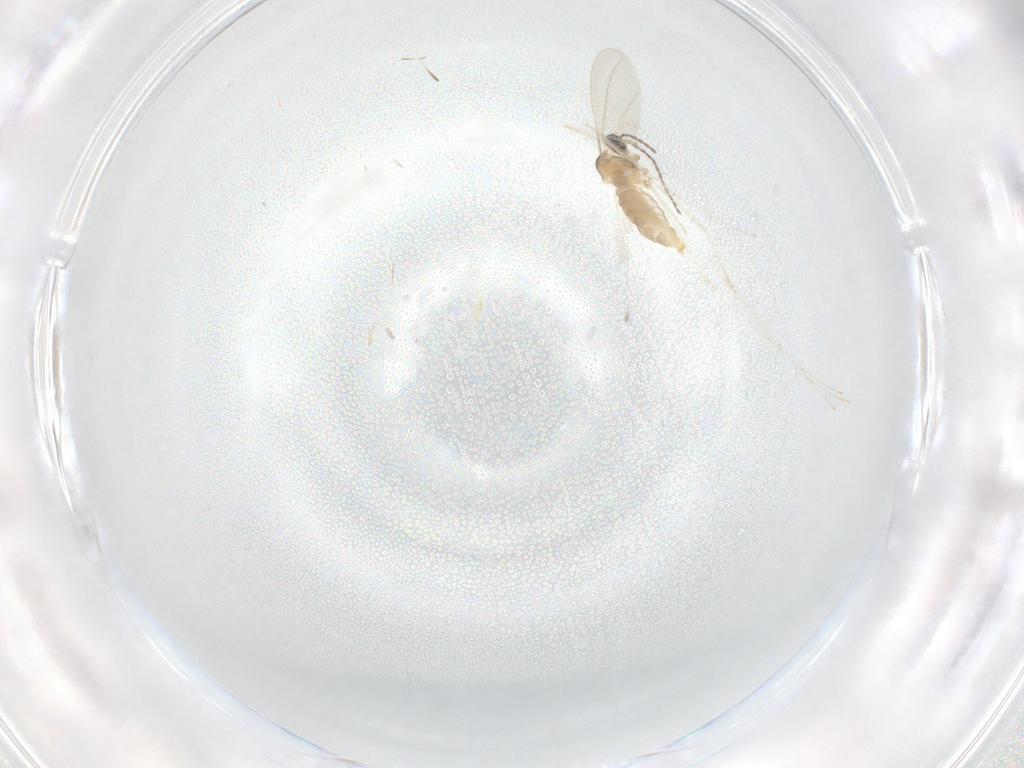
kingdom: Animalia
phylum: Arthropoda
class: Insecta
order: Diptera
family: Cecidomyiidae
